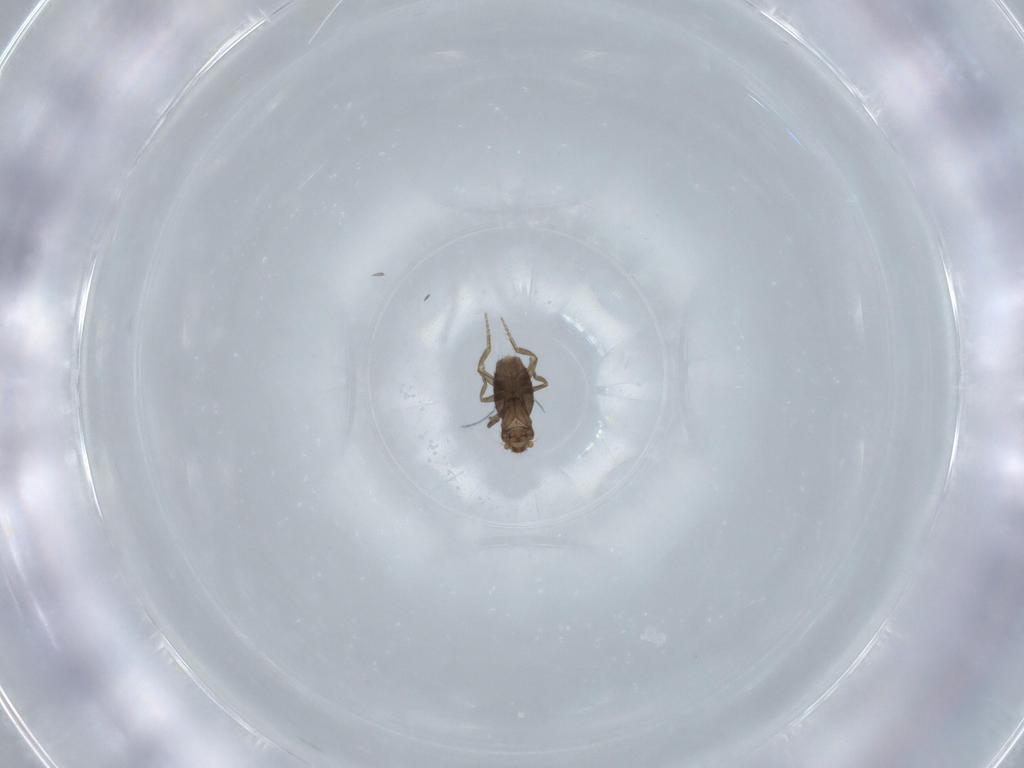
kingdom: Animalia
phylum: Arthropoda
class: Insecta
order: Diptera
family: Phoridae
